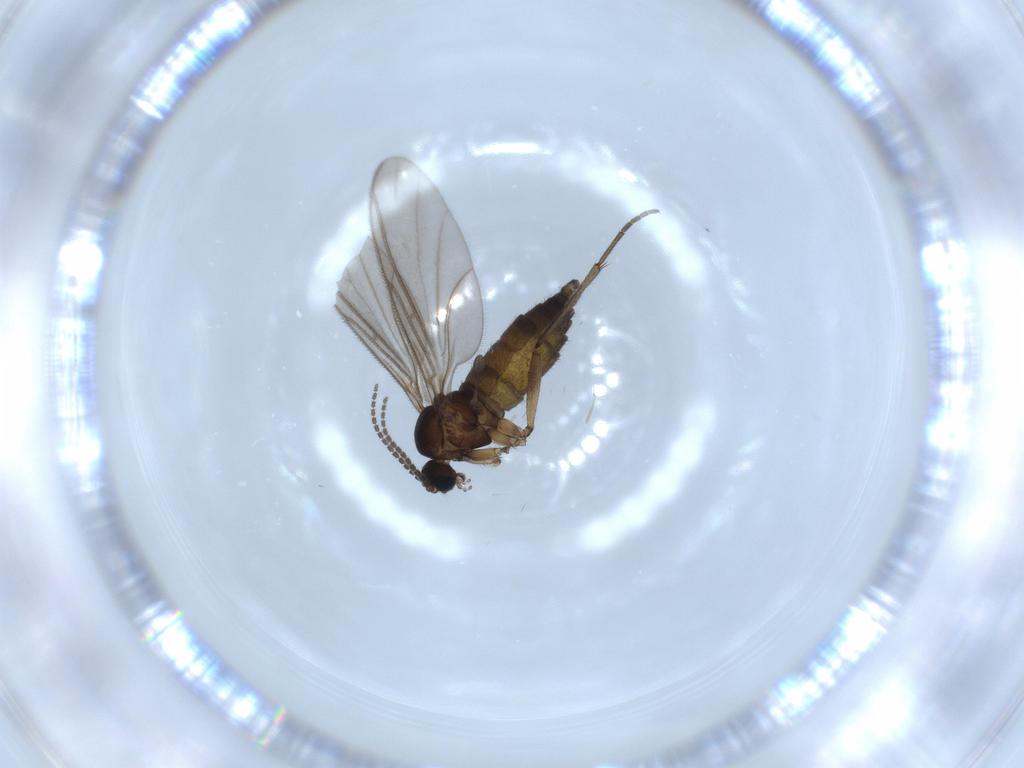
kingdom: Animalia
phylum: Arthropoda
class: Insecta
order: Diptera
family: Sciaridae
